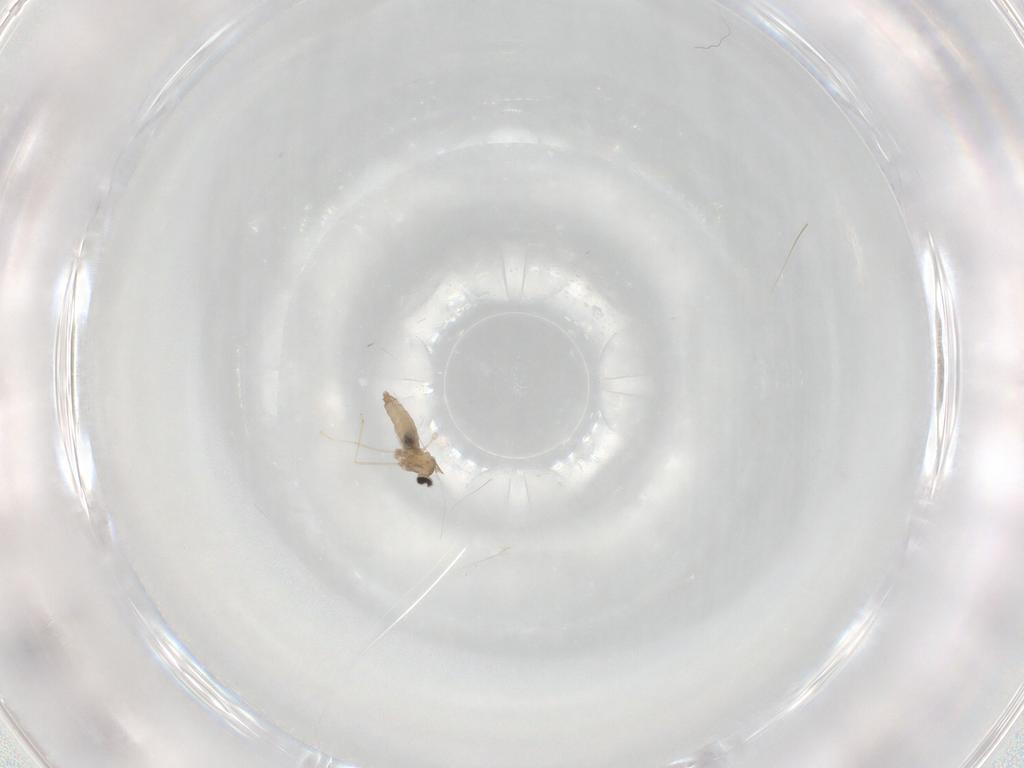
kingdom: Animalia
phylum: Arthropoda
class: Insecta
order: Diptera
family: Cecidomyiidae
